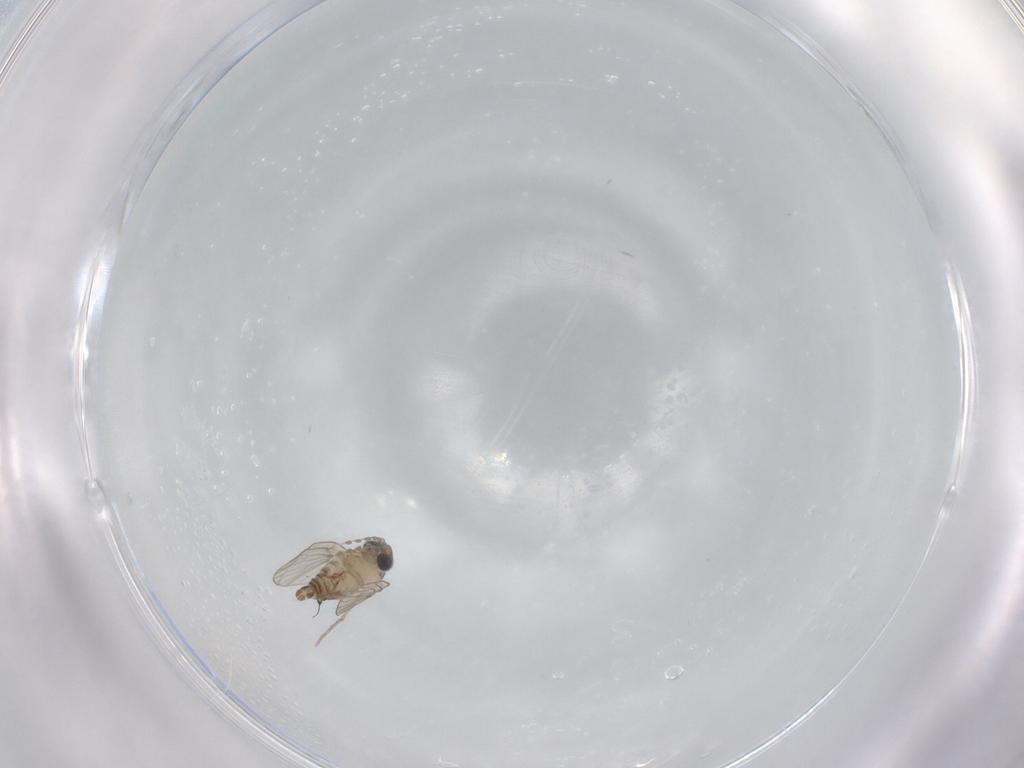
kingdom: Animalia
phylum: Arthropoda
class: Insecta
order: Diptera
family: Psychodidae
